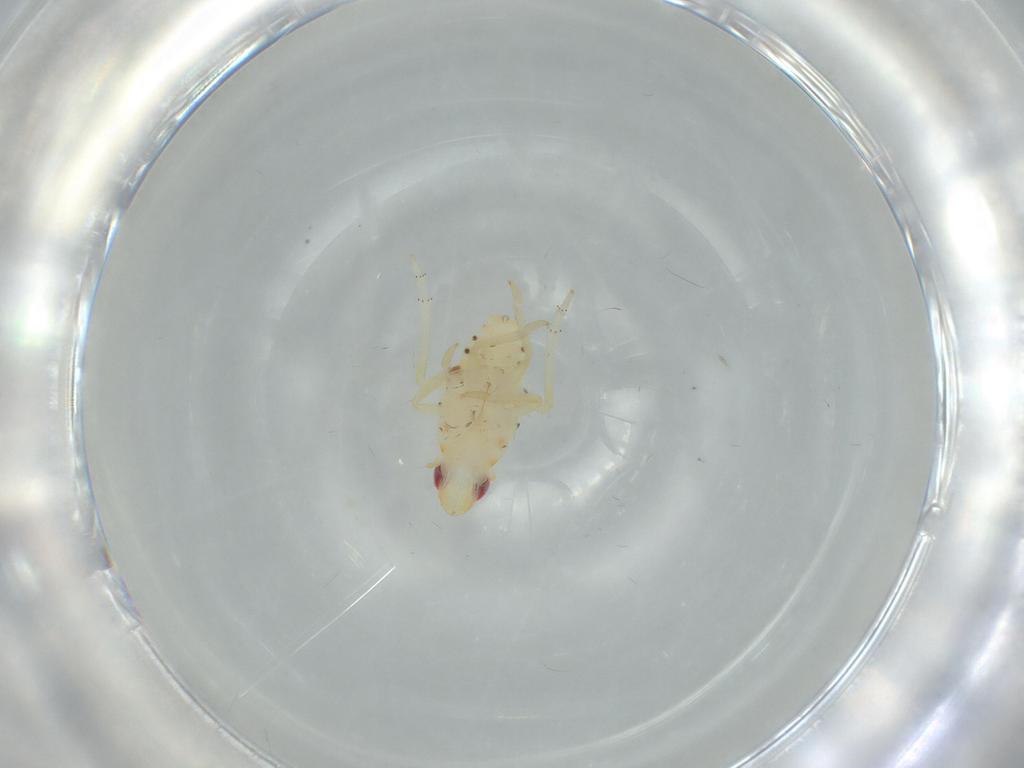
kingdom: Animalia
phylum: Arthropoda
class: Insecta
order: Hemiptera
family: Tropiduchidae
